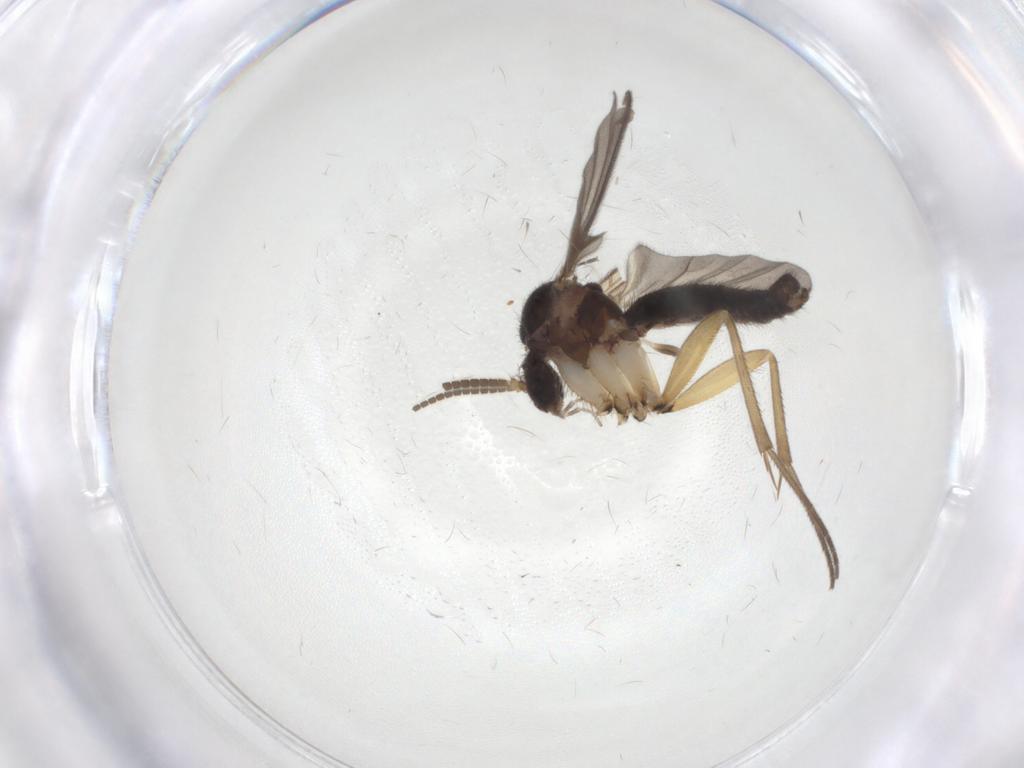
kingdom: Animalia
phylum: Arthropoda
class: Insecta
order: Diptera
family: Mycetophilidae
